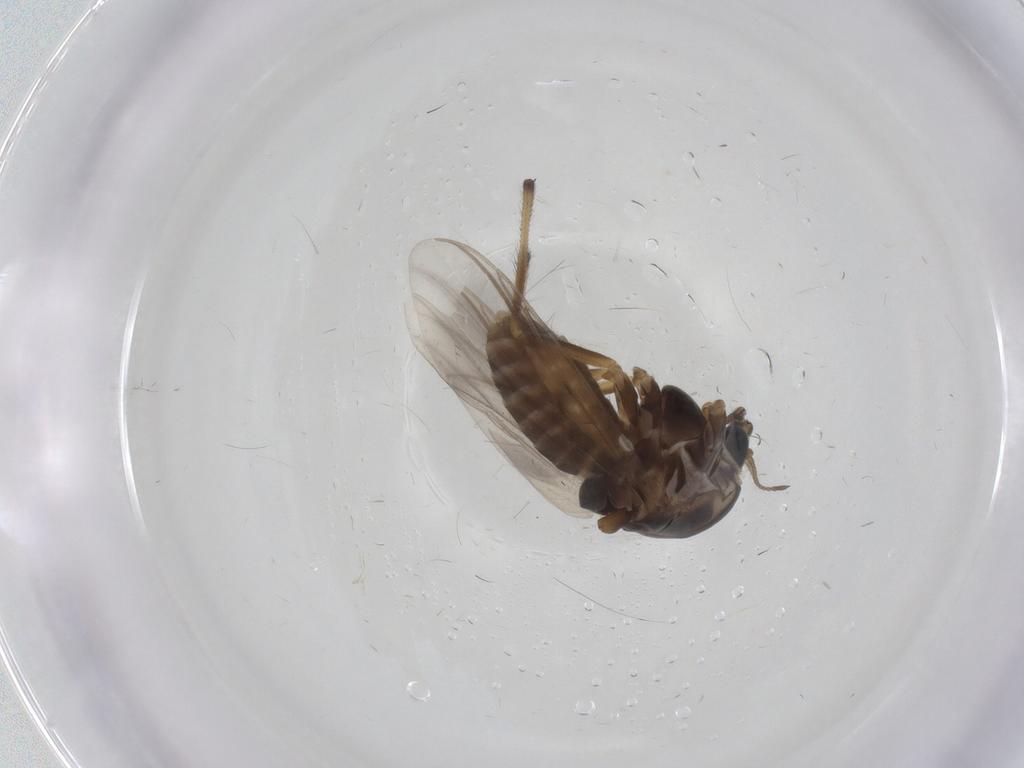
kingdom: Animalia
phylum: Arthropoda
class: Insecta
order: Diptera
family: Chironomidae
